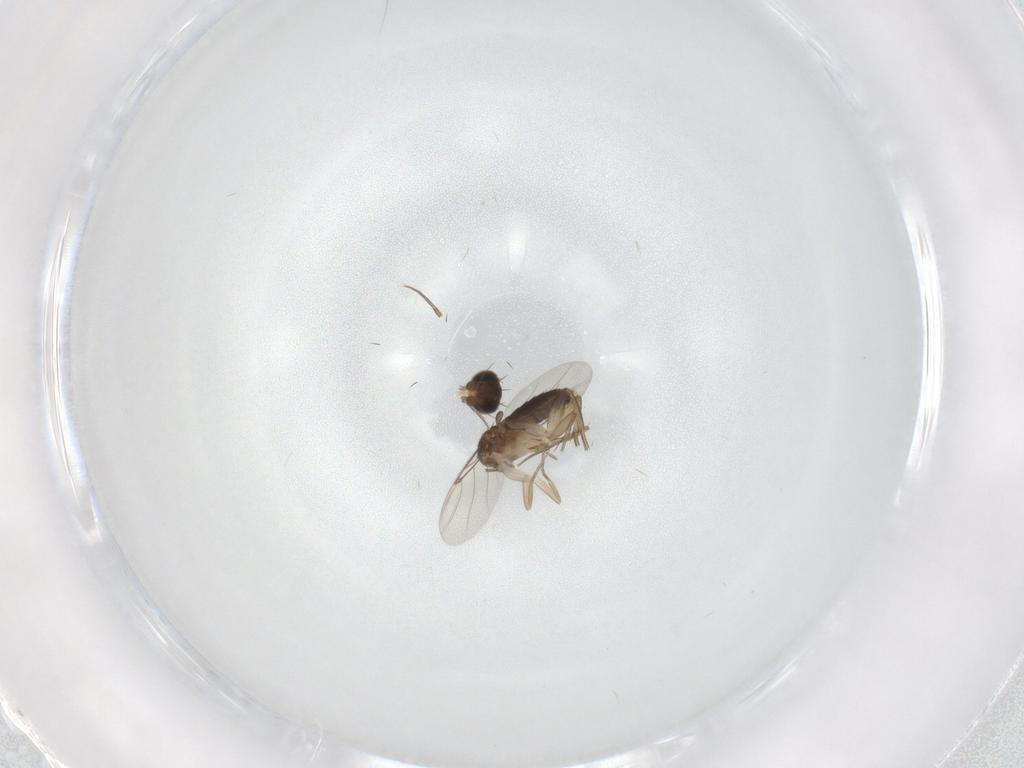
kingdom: Animalia
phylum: Arthropoda
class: Insecta
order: Diptera
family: Phoridae
